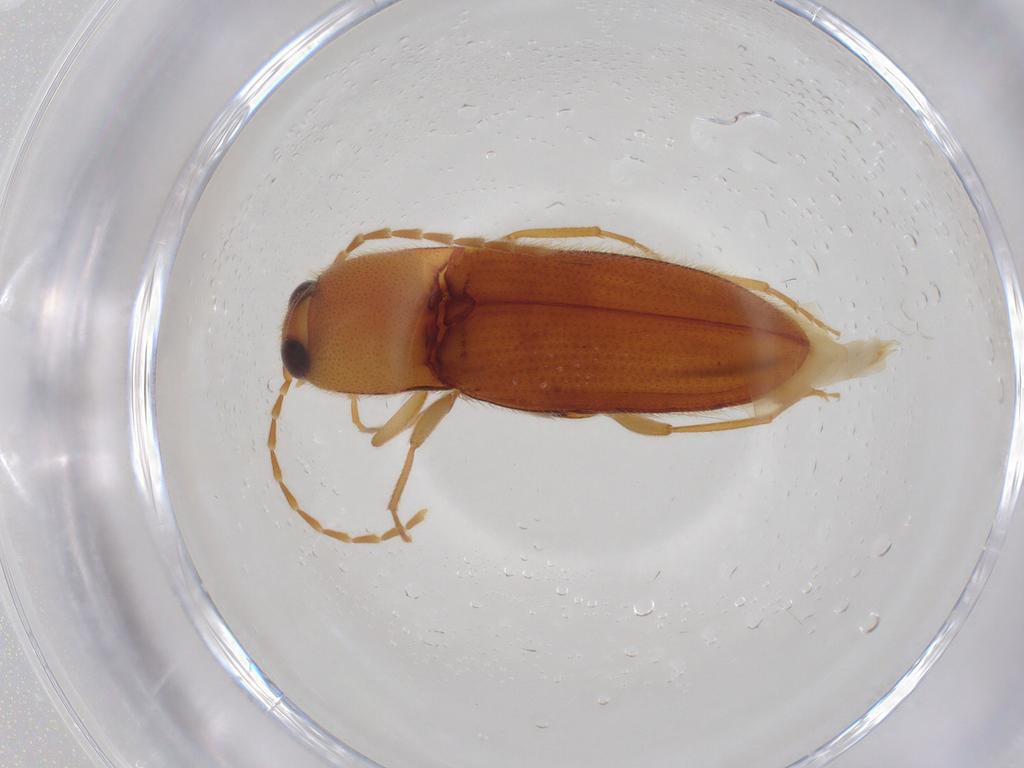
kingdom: Animalia
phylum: Arthropoda
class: Insecta
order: Coleoptera
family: Elateridae
